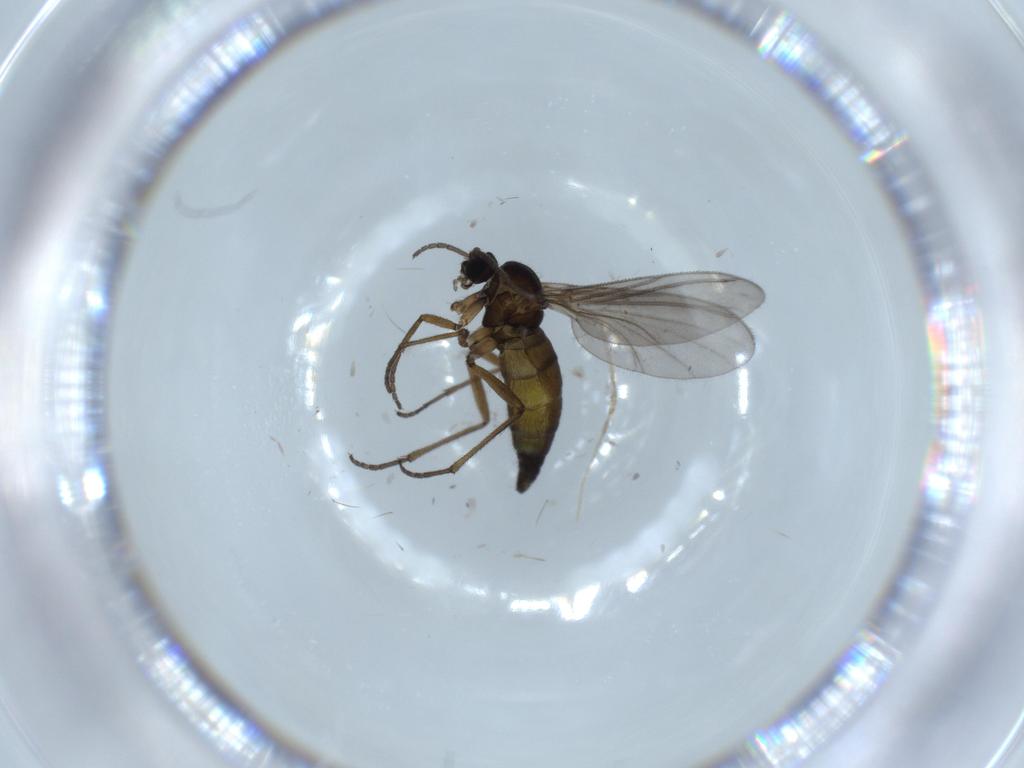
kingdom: Animalia
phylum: Arthropoda
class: Insecta
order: Diptera
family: Sciaridae
